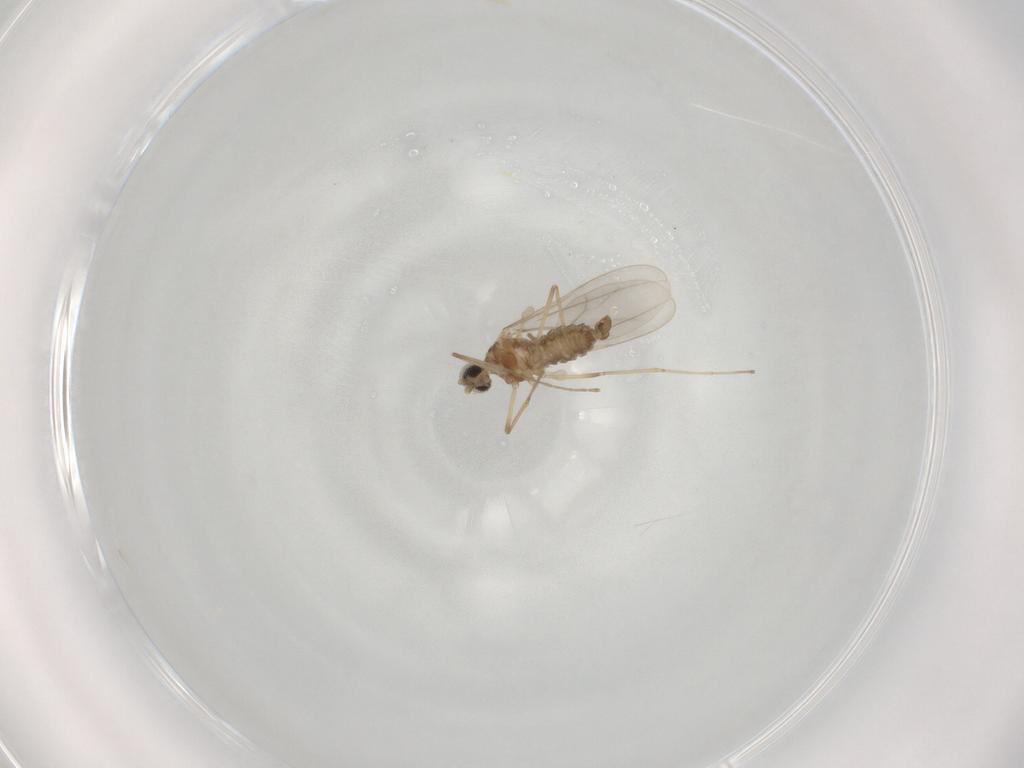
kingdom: Animalia
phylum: Arthropoda
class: Insecta
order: Diptera
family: Cecidomyiidae
